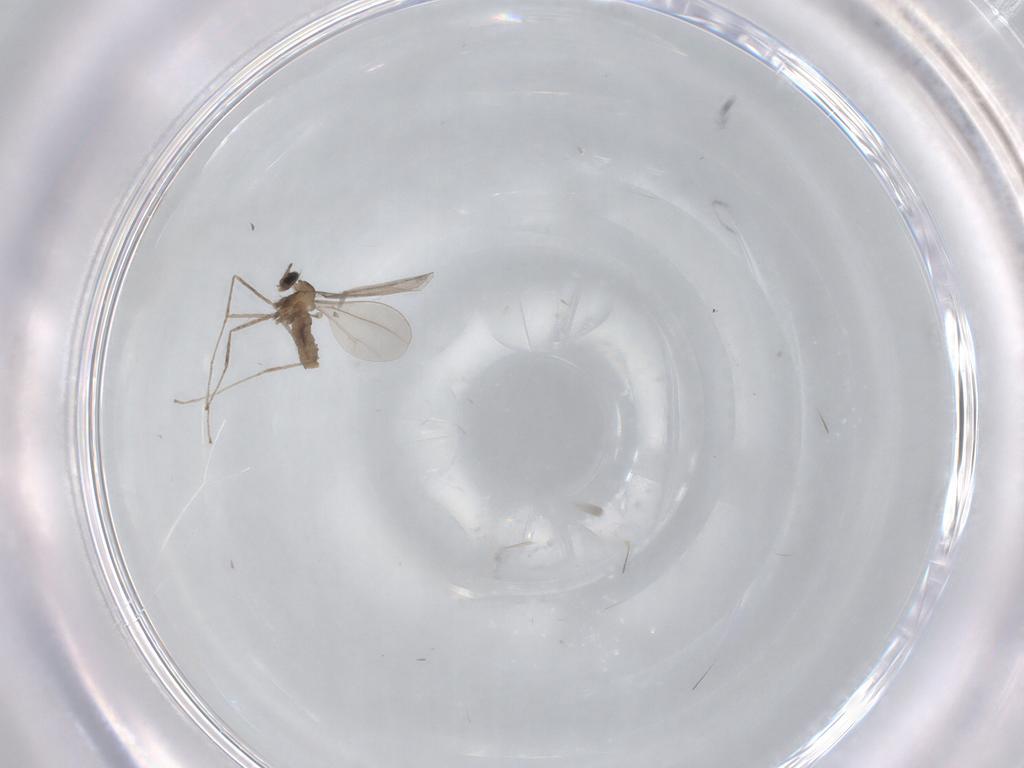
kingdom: Animalia
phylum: Arthropoda
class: Insecta
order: Diptera
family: Cecidomyiidae
